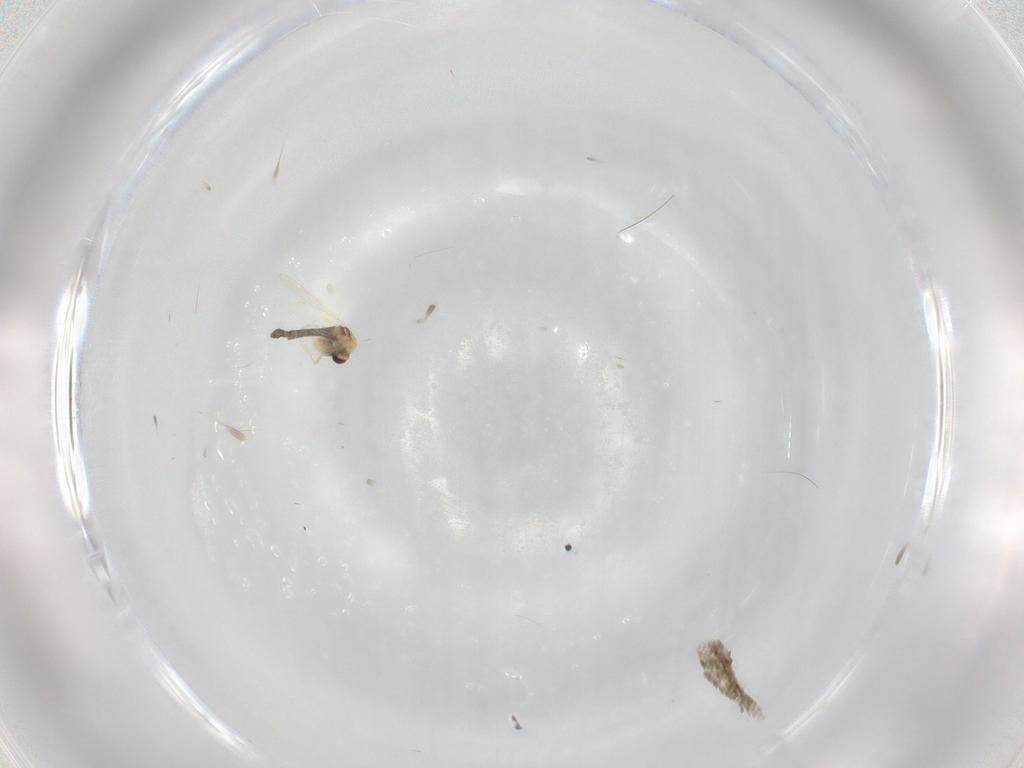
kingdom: Animalia
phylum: Arthropoda
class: Insecta
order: Diptera
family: Chironomidae
